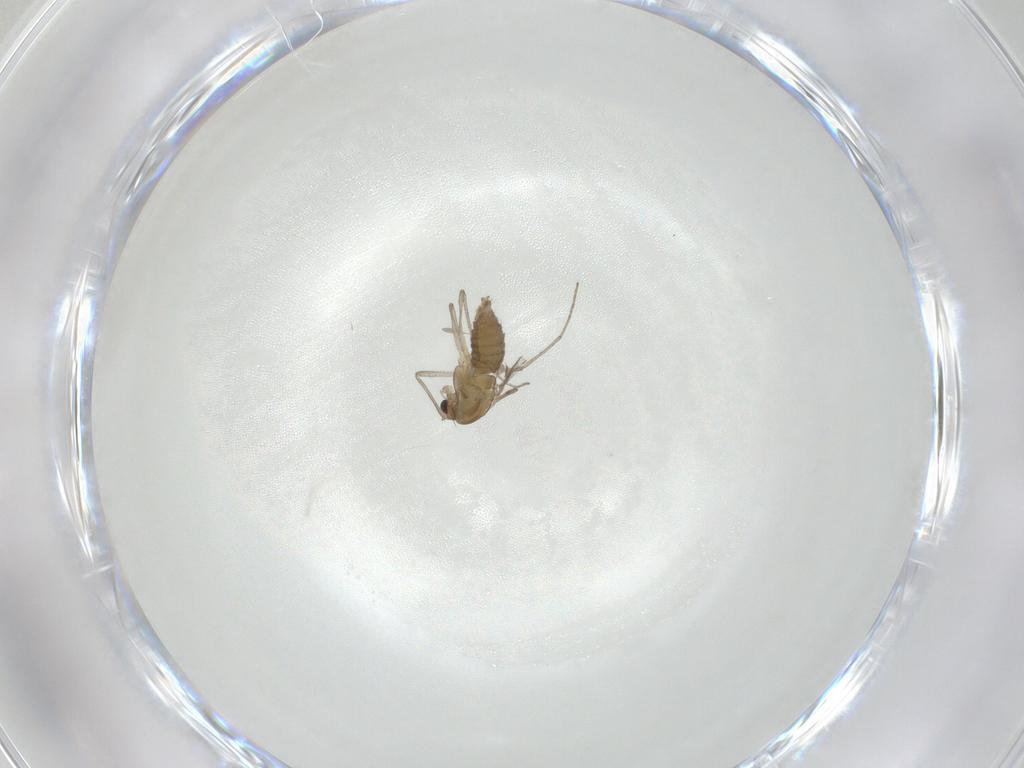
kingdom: Animalia
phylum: Arthropoda
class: Insecta
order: Diptera
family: Chironomidae
